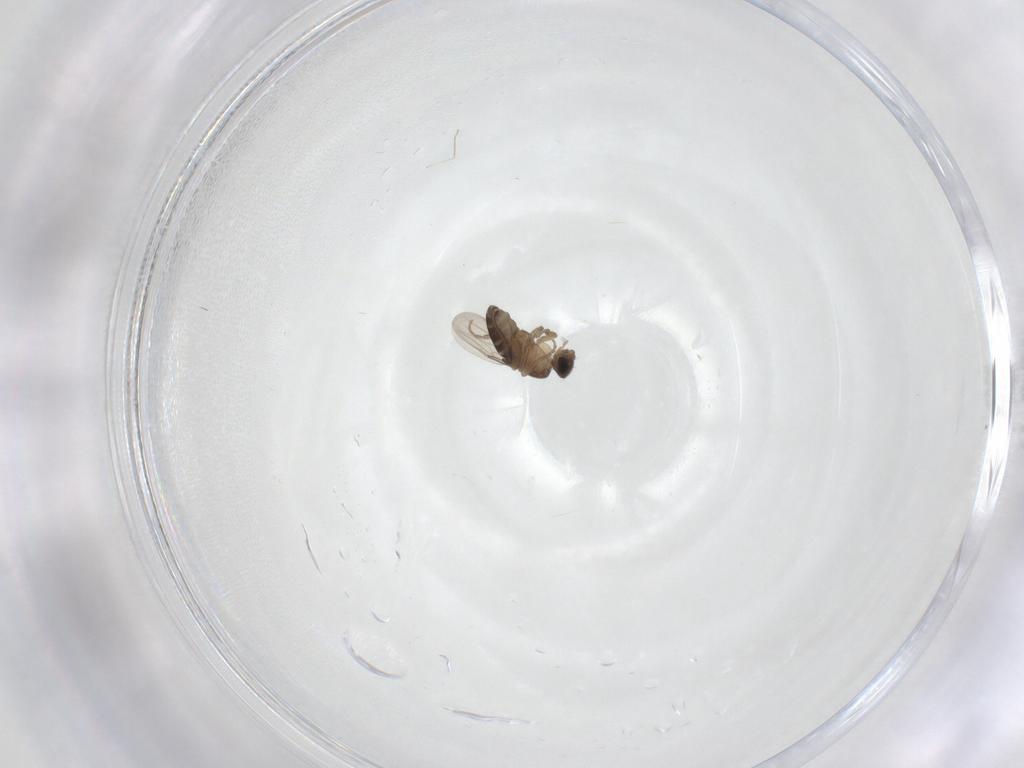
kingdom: Animalia
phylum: Arthropoda
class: Insecta
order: Diptera
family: Phoridae
